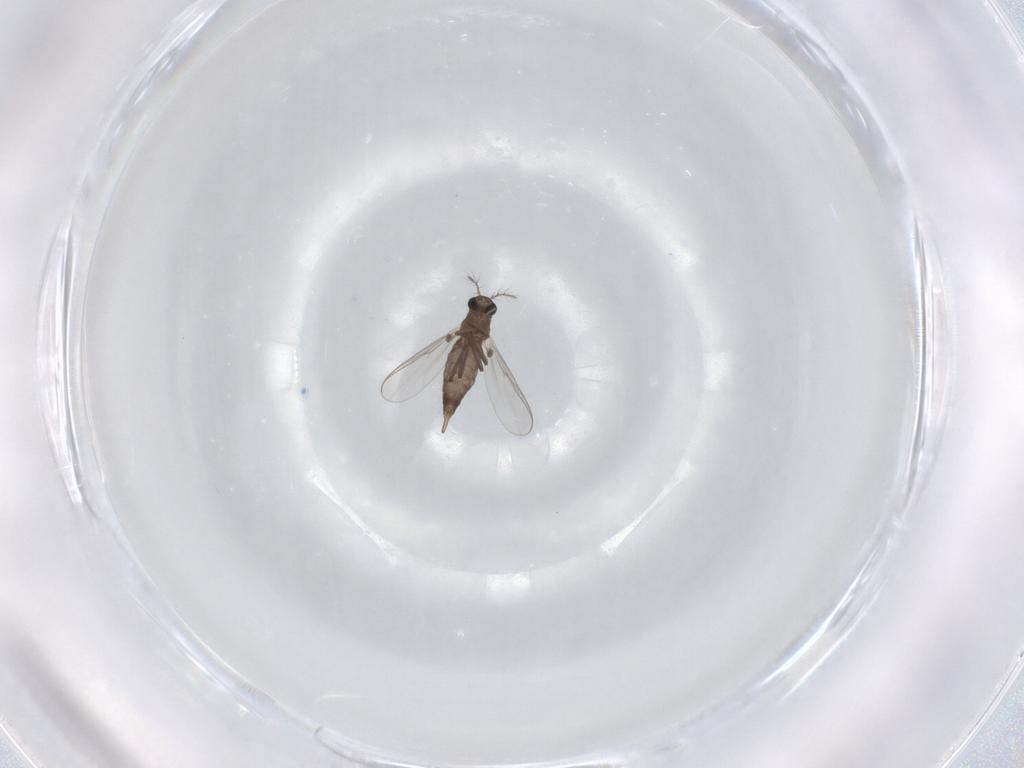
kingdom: Animalia
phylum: Arthropoda
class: Insecta
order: Diptera
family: Chironomidae
